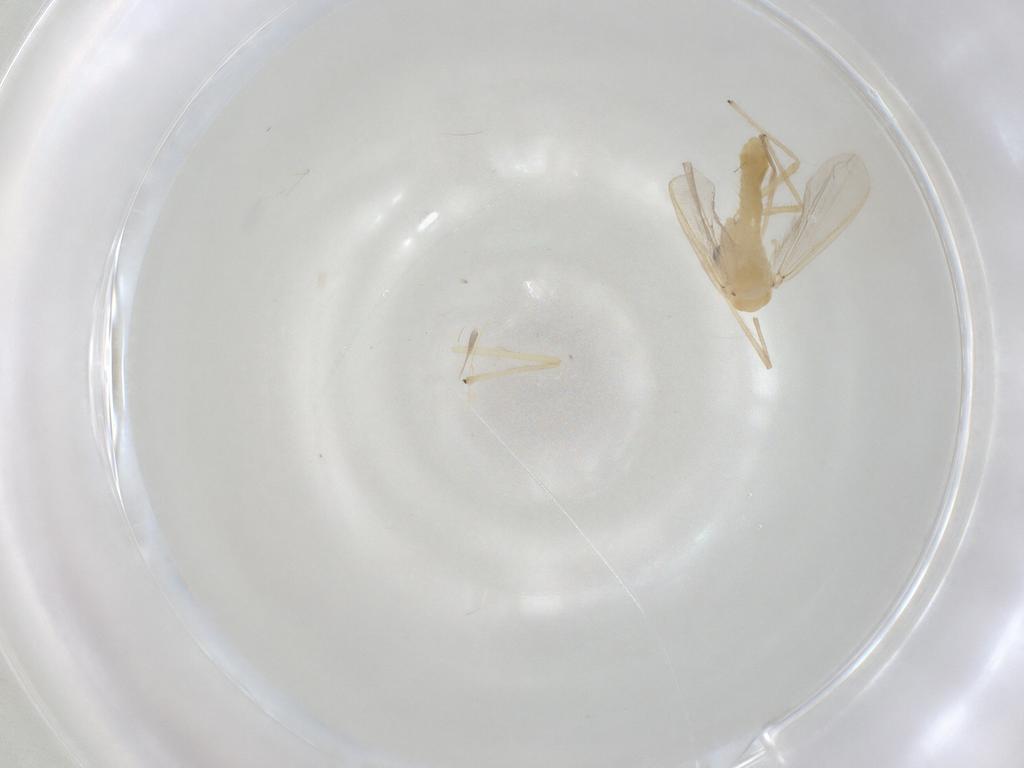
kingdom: Animalia
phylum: Arthropoda
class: Insecta
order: Diptera
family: Chironomidae
